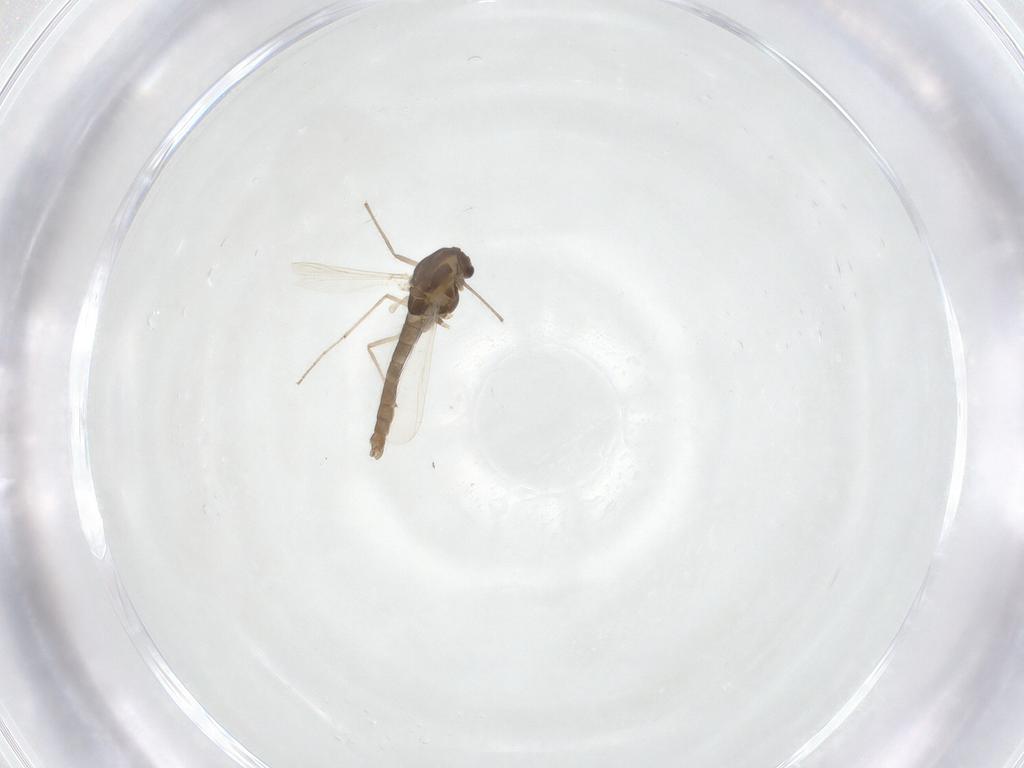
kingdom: Animalia
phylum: Arthropoda
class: Insecta
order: Diptera
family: Chironomidae
